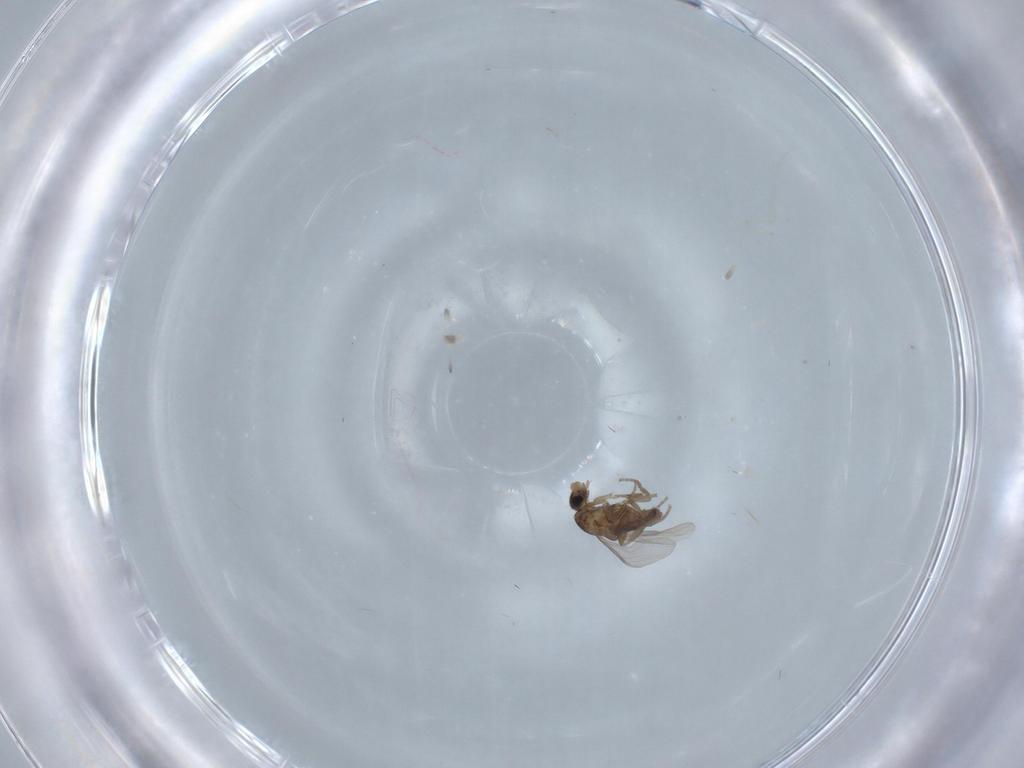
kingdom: Animalia
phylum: Arthropoda
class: Insecta
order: Diptera
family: Phoridae
